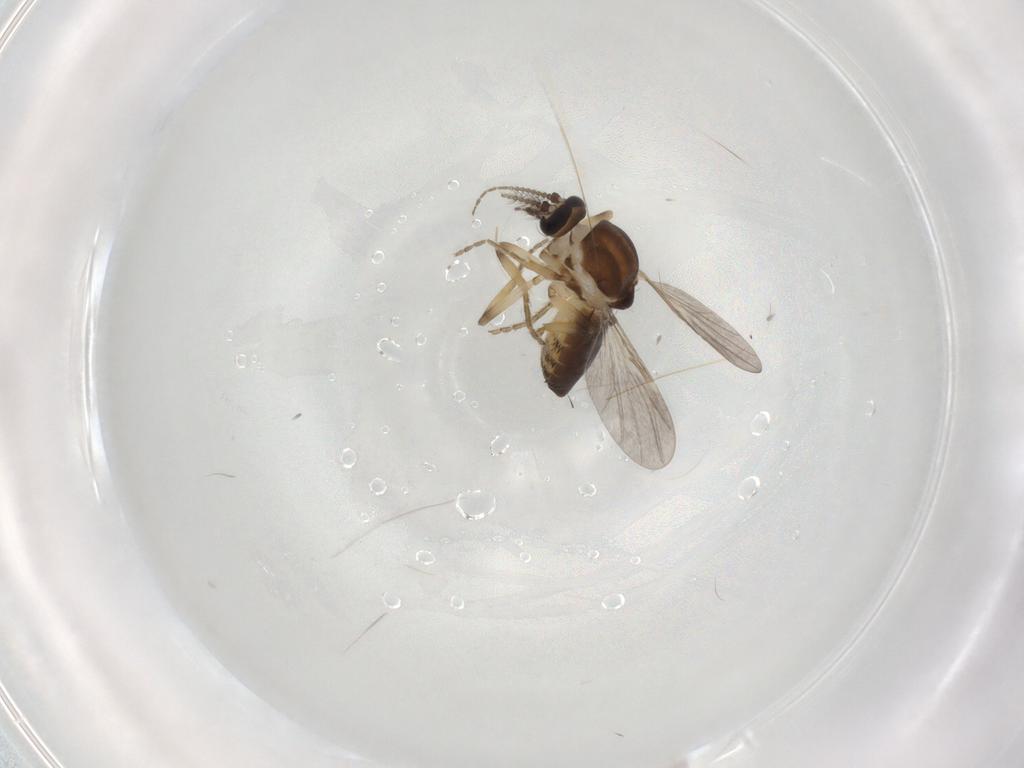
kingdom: Animalia
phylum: Arthropoda
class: Insecta
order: Diptera
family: Ceratopogonidae
